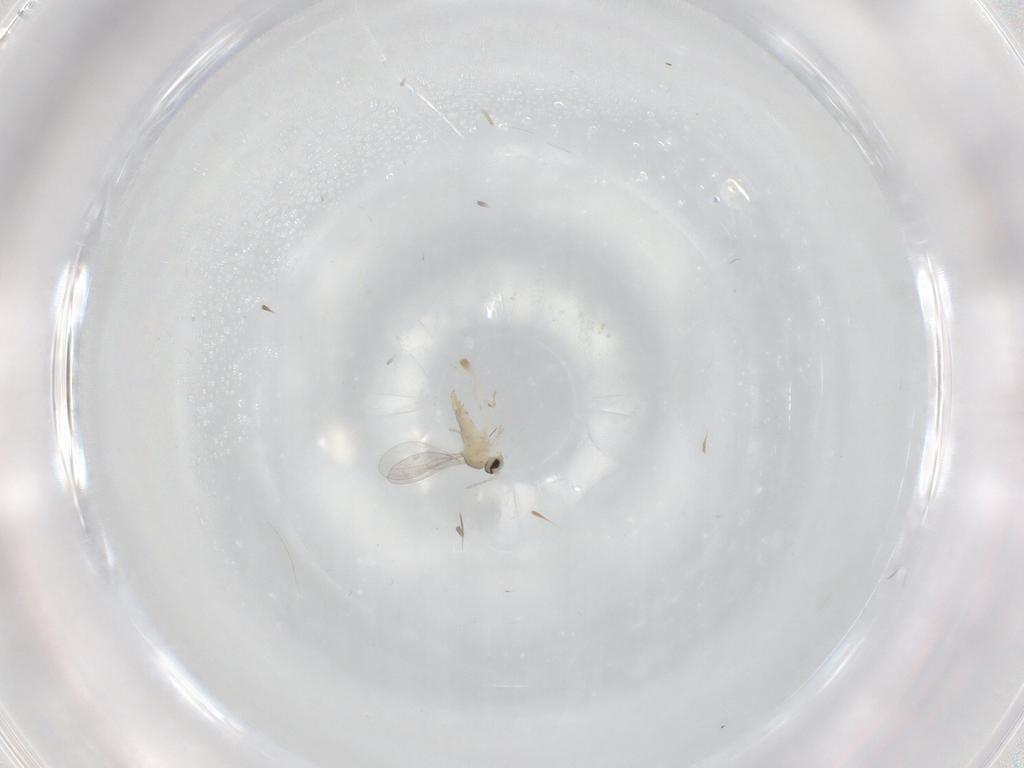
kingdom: Animalia
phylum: Arthropoda
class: Insecta
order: Diptera
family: Cecidomyiidae
